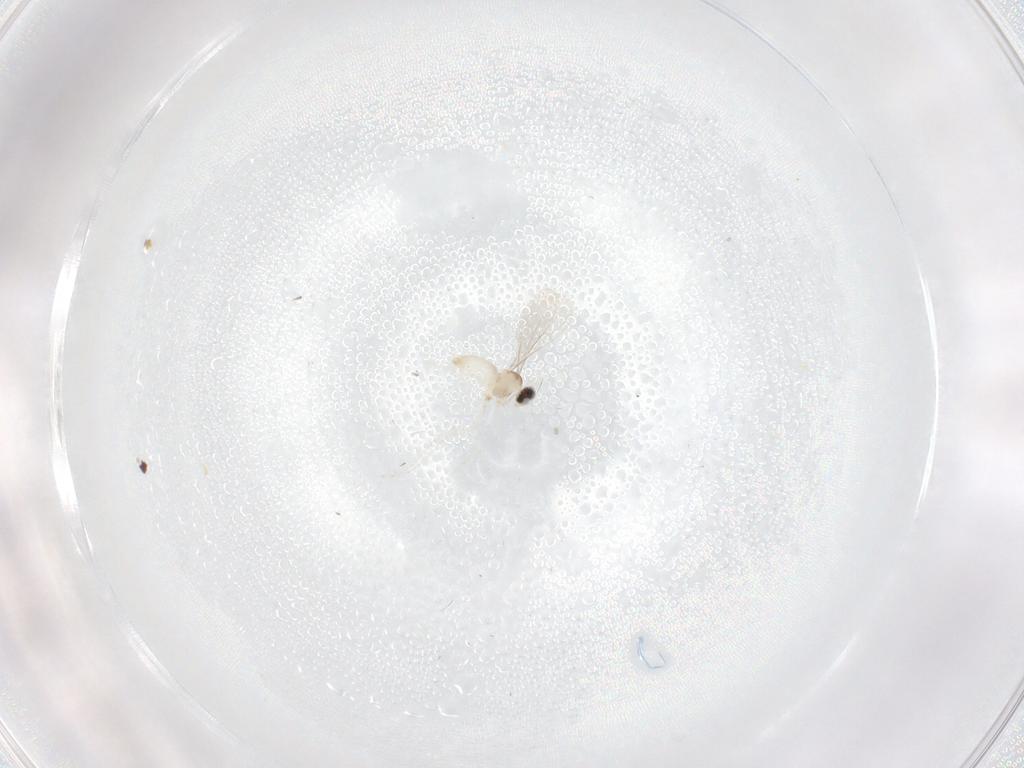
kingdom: Animalia
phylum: Arthropoda
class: Insecta
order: Diptera
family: Cecidomyiidae
